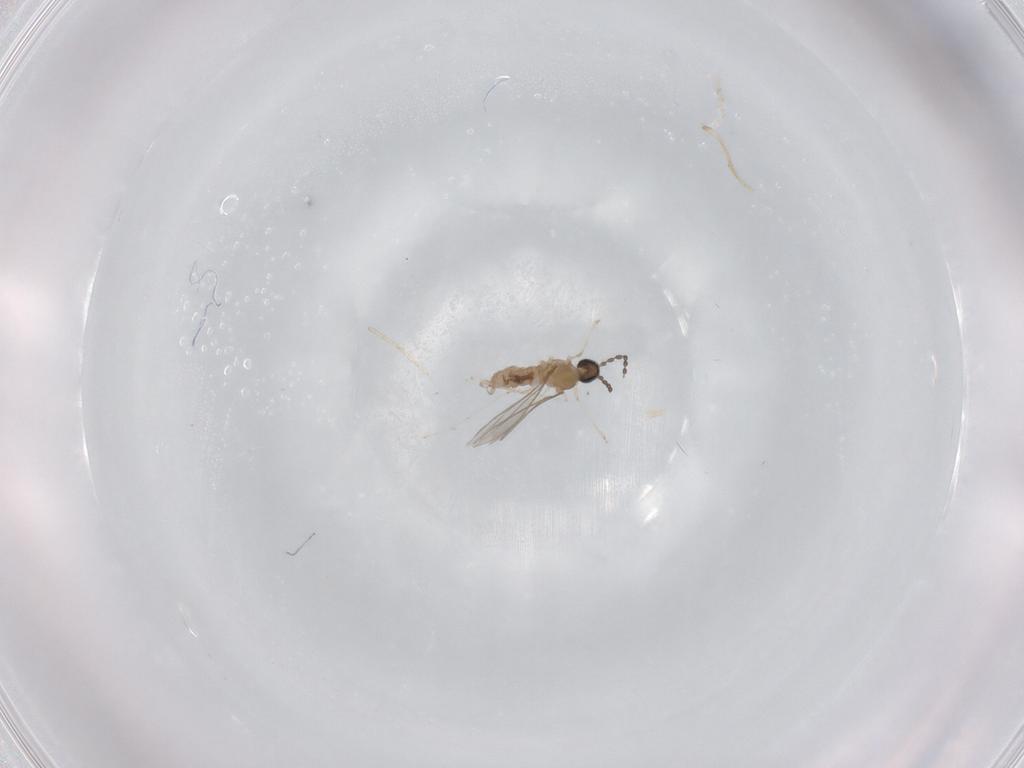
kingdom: Animalia
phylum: Arthropoda
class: Insecta
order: Diptera
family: Cecidomyiidae
